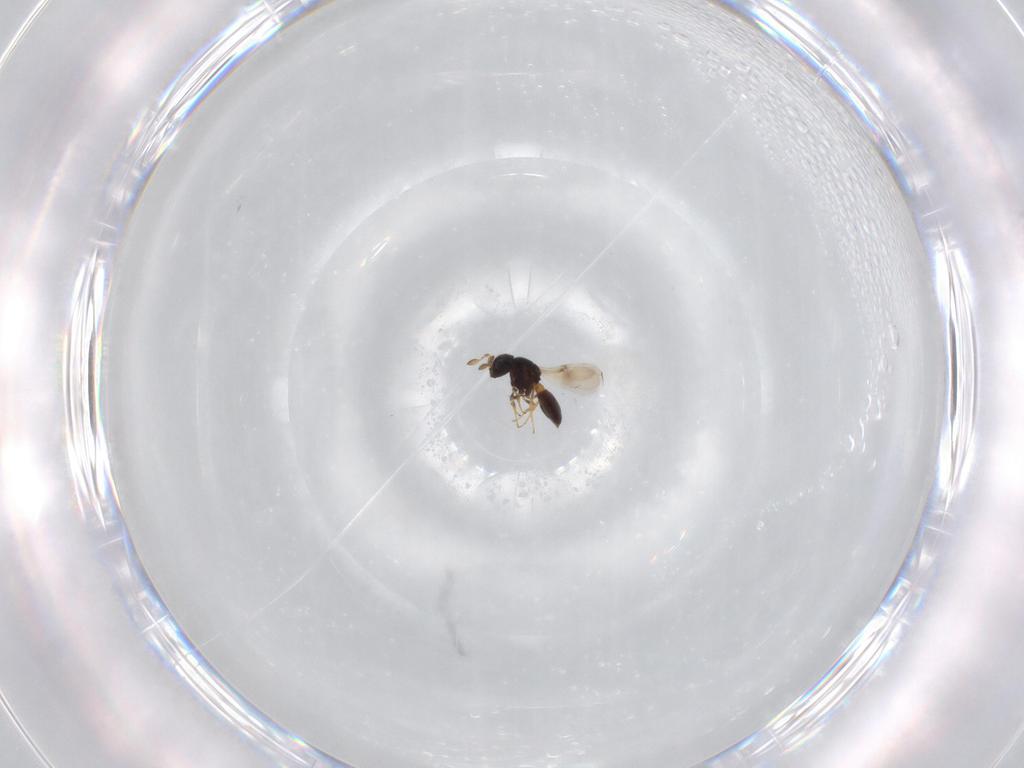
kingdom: Animalia
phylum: Arthropoda
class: Insecta
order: Hymenoptera
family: Scelionidae
